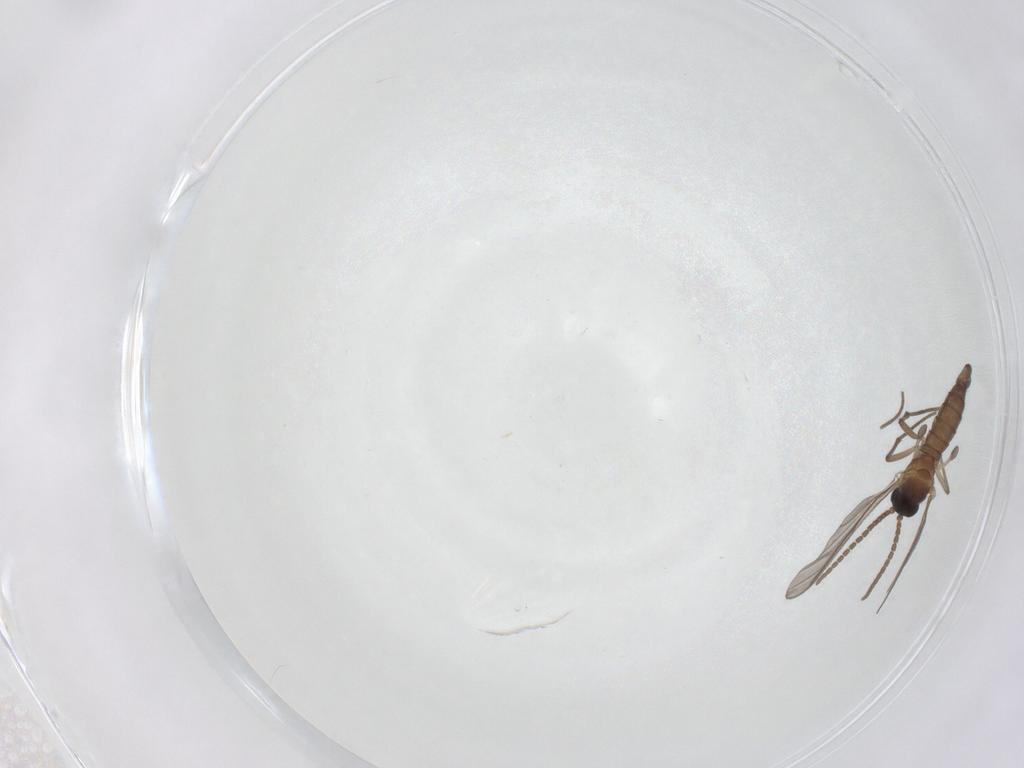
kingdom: Animalia
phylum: Arthropoda
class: Insecta
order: Diptera
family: Sciaridae
